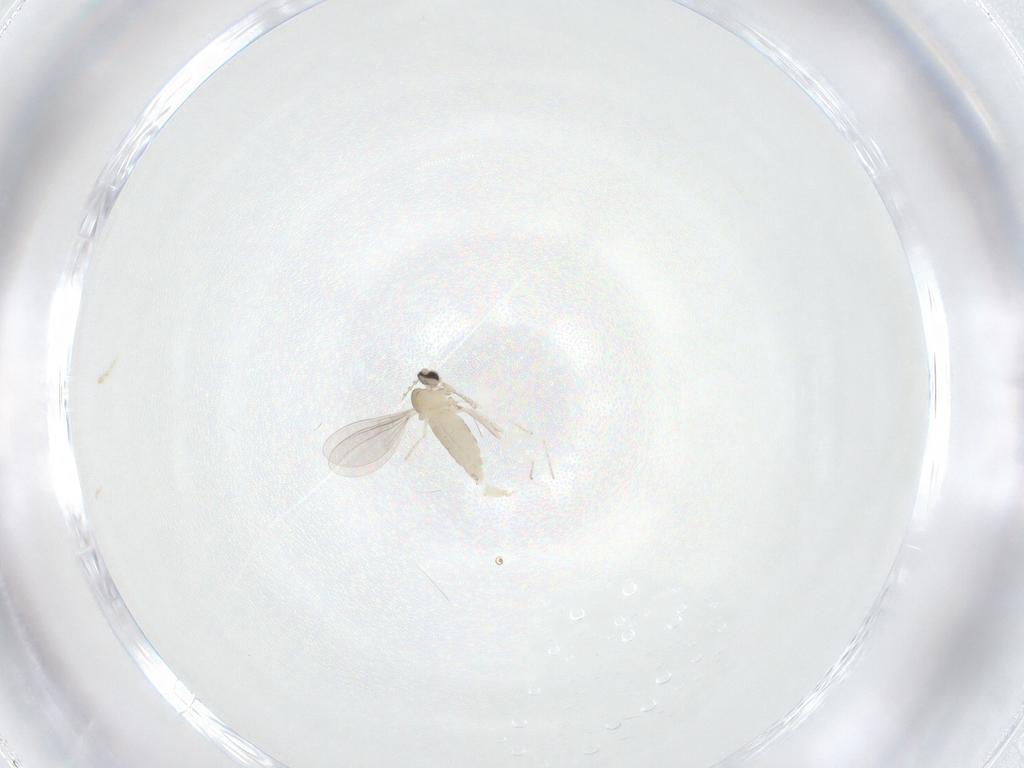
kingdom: Animalia
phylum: Arthropoda
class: Insecta
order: Diptera
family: Cecidomyiidae
